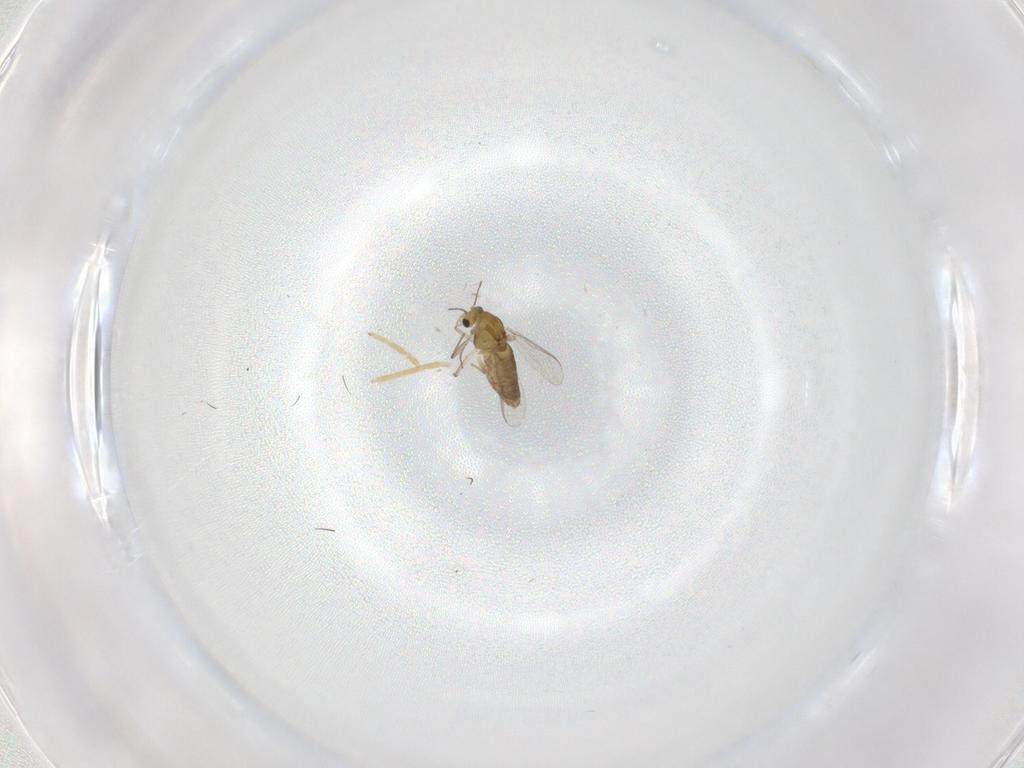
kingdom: Animalia
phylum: Arthropoda
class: Insecta
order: Diptera
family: Chironomidae
